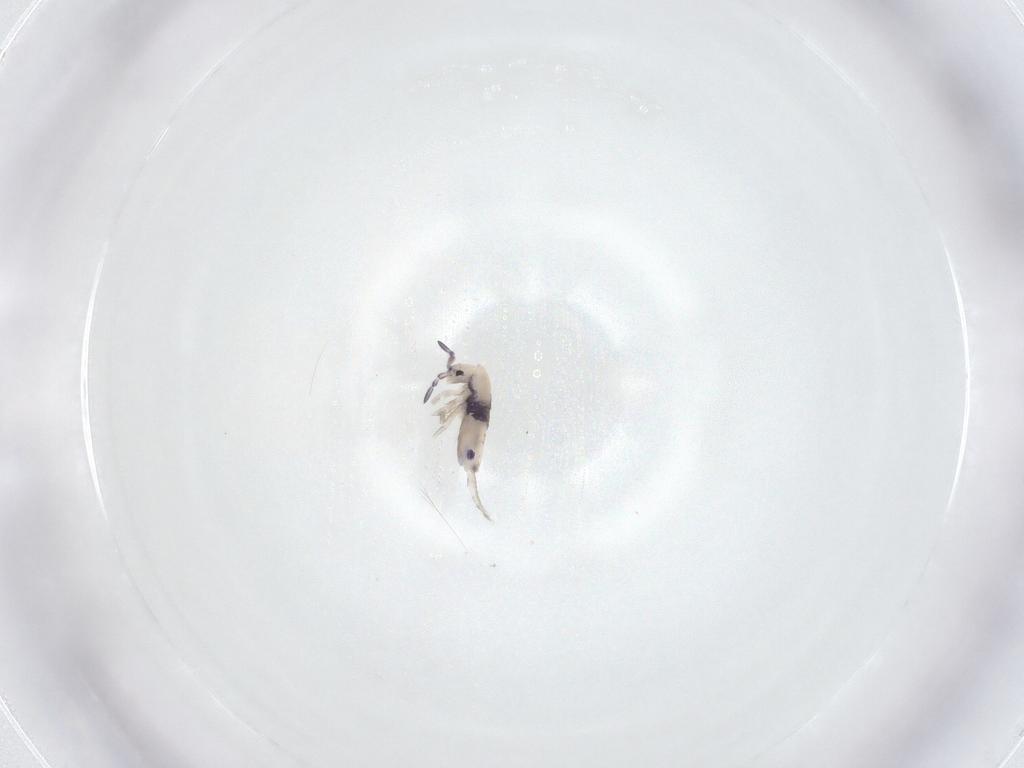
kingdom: Animalia
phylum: Arthropoda
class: Collembola
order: Entomobryomorpha
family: Entomobryidae
